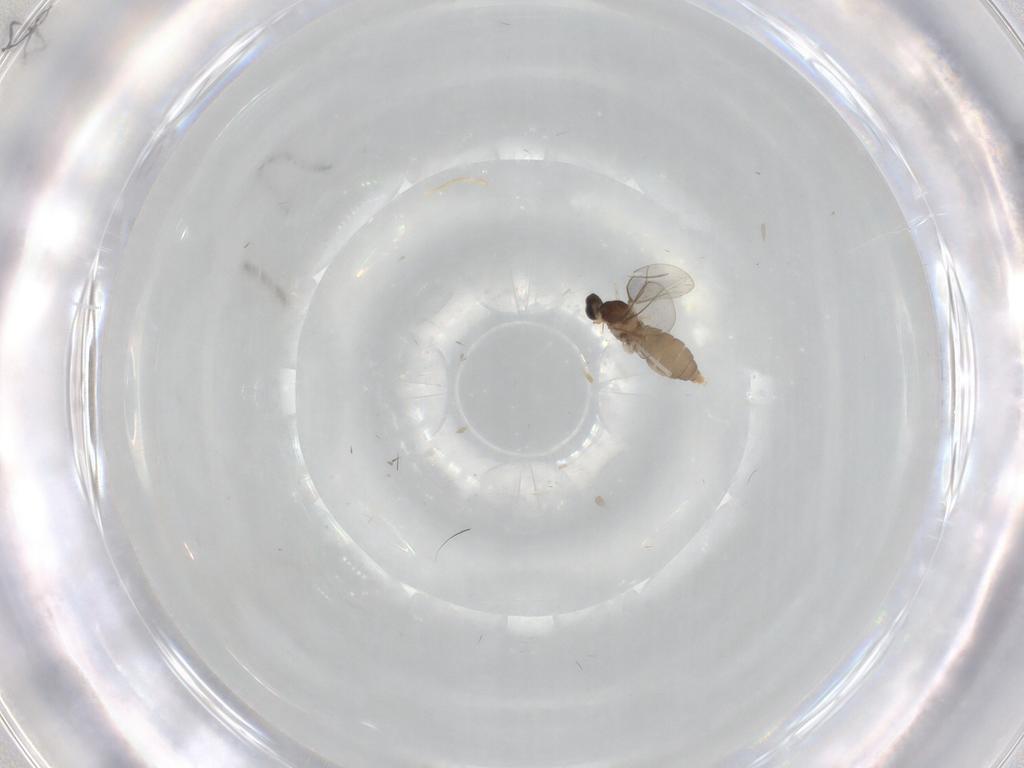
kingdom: Animalia
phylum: Arthropoda
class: Insecta
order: Diptera
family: Cecidomyiidae
